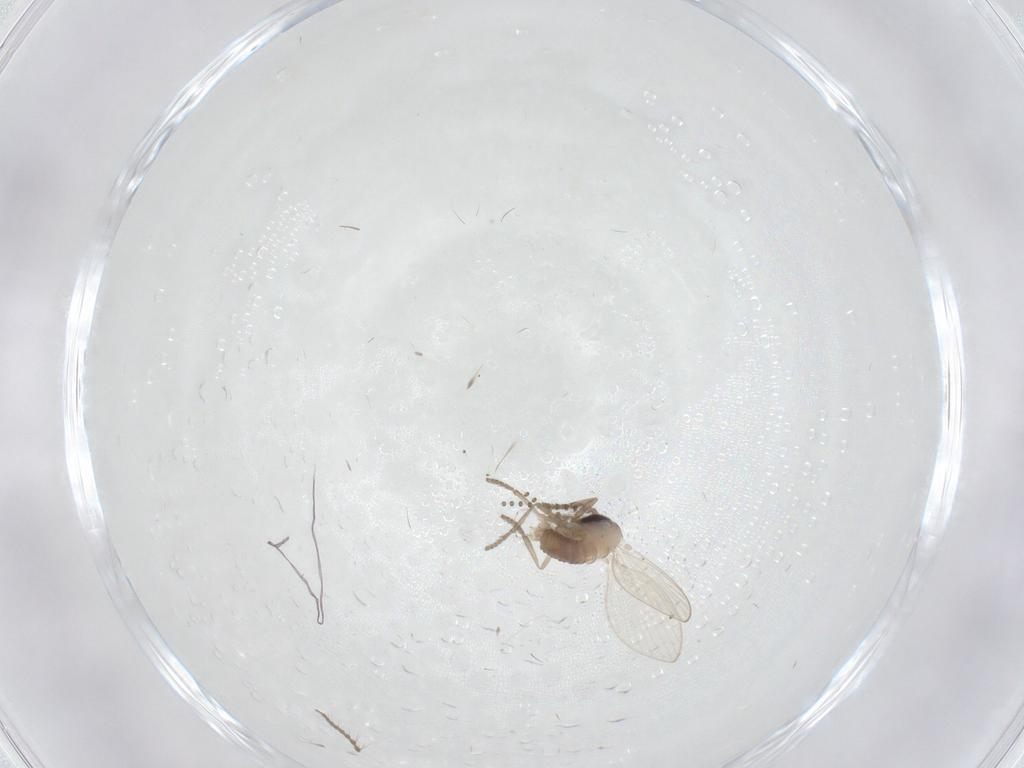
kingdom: Animalia
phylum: Arthropoda
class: Insecta
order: Diptera
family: Psychodidae
